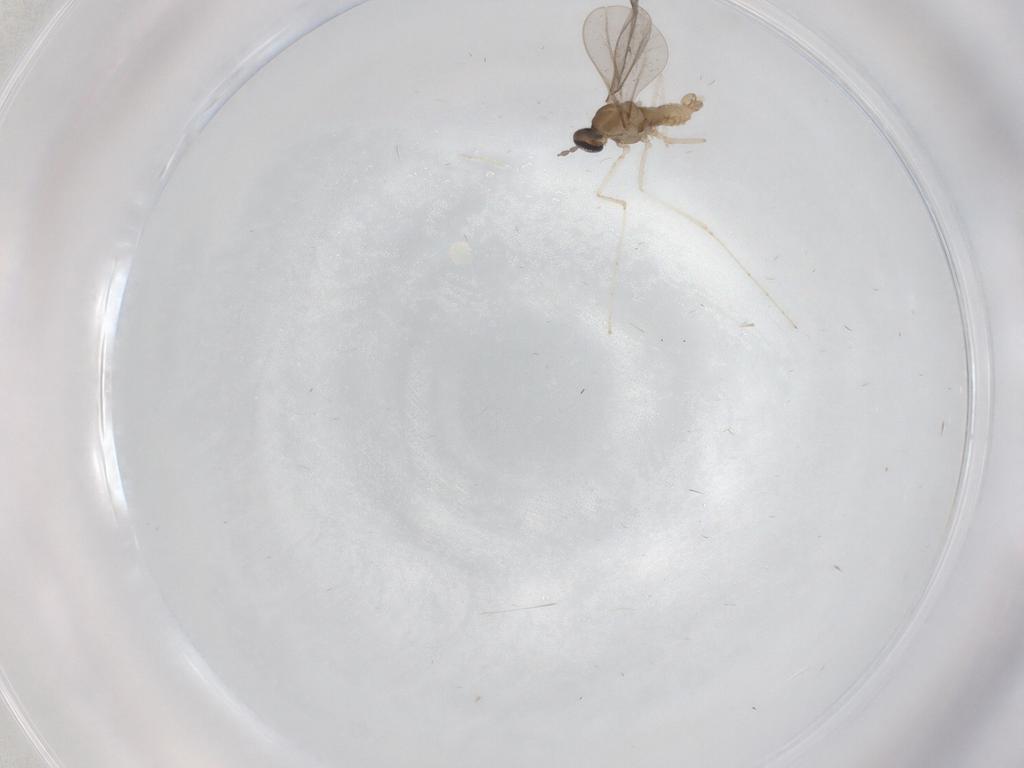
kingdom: Animalia
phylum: Arthropoda
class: Insecta
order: Diptera
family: Cecidomyiidae
